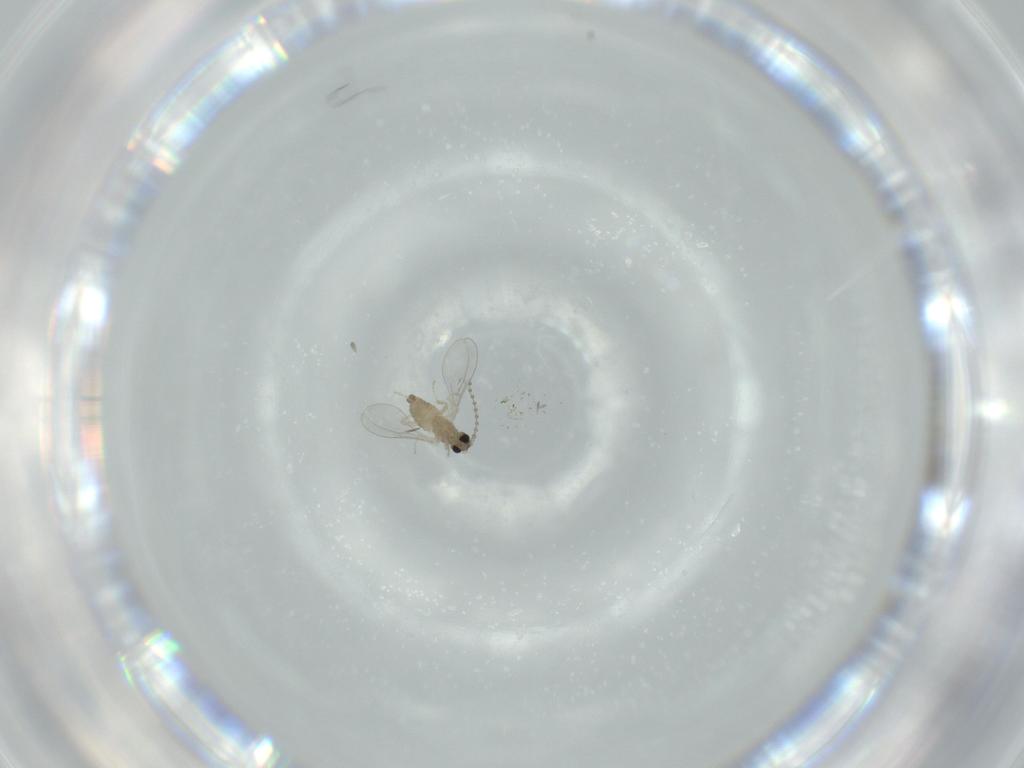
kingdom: Animalia
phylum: Arthropoda
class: Insecta
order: Diptera
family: Cecidomyiidae
